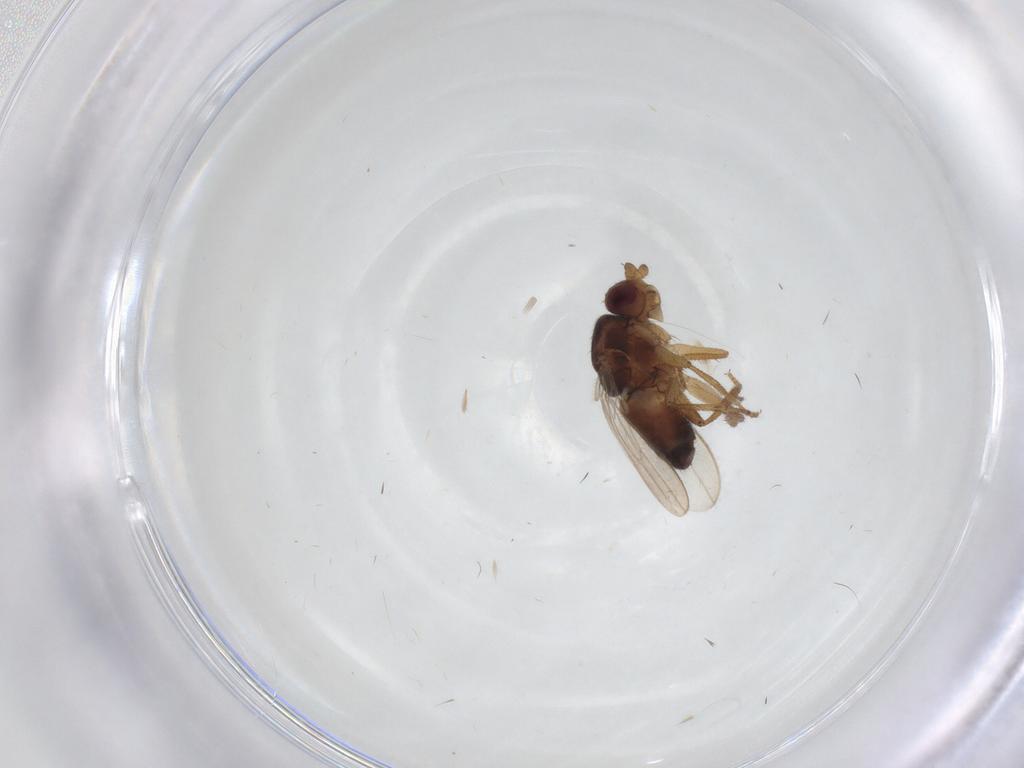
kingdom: Animalia
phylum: Arthropoda
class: Insecta
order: Diptera
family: Sphaeroceridae
